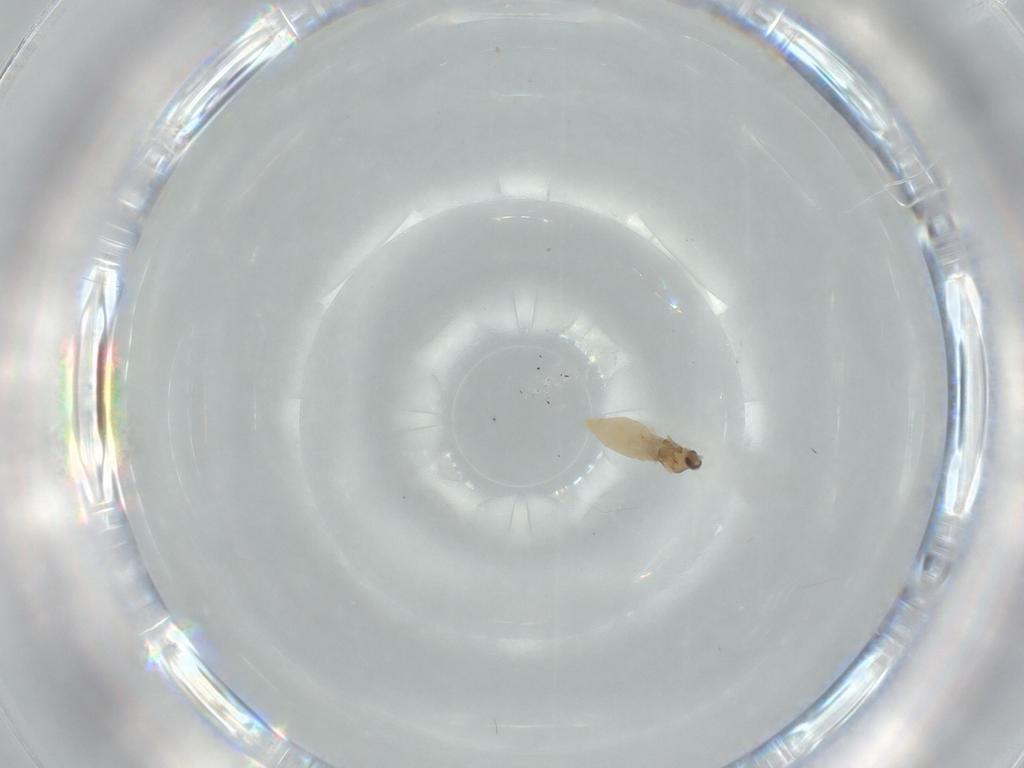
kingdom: Animalia
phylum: Arthropoda
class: Insecta
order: Diptera
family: Cecidomyiidae
